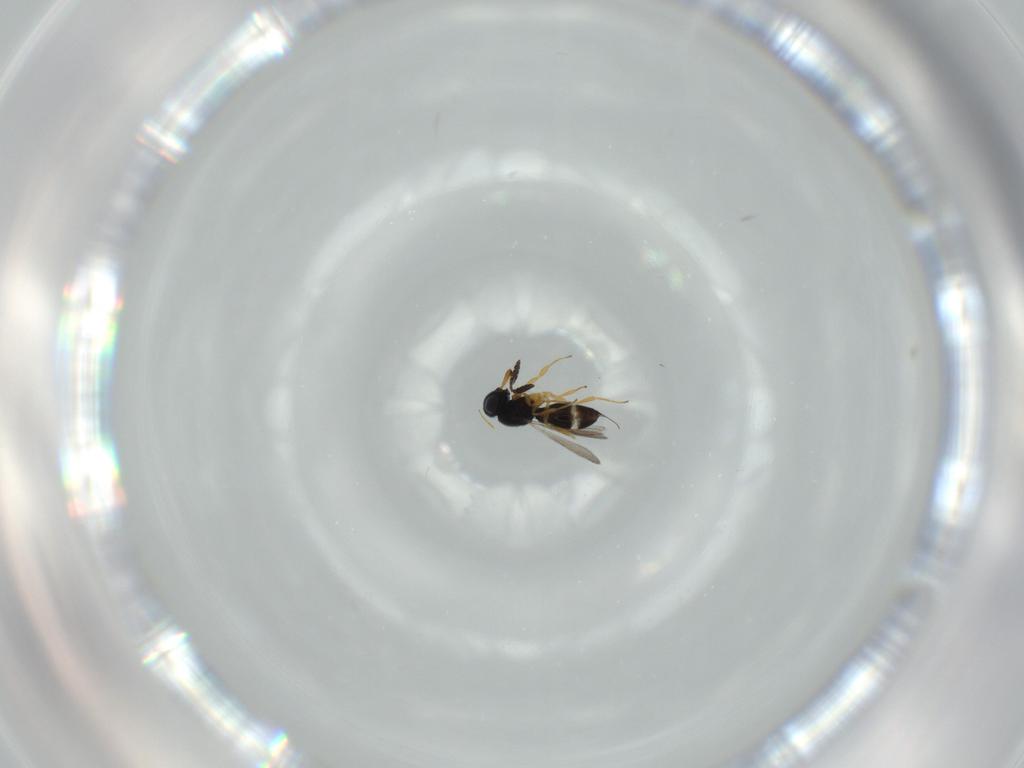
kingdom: Animalia
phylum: Arthropoda
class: Insecta
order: Hymenoptera
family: Scelionidae
